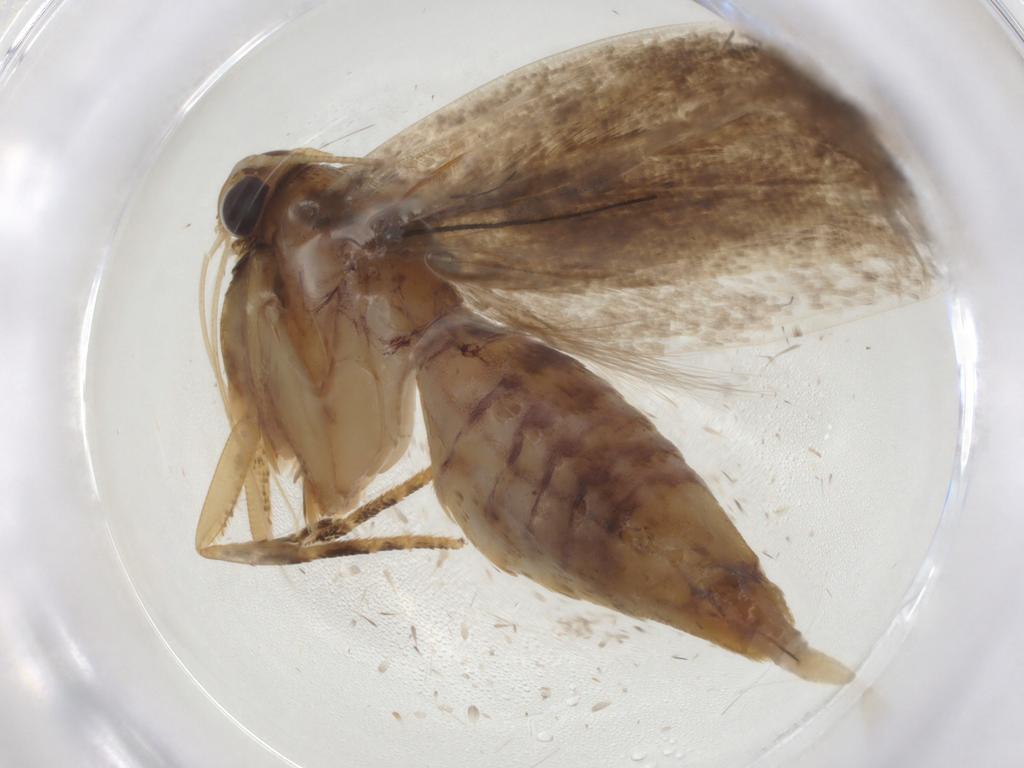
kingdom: Animalia
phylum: Arthropoda
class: Insecta
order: Lepidoptera
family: Gelechiidae
